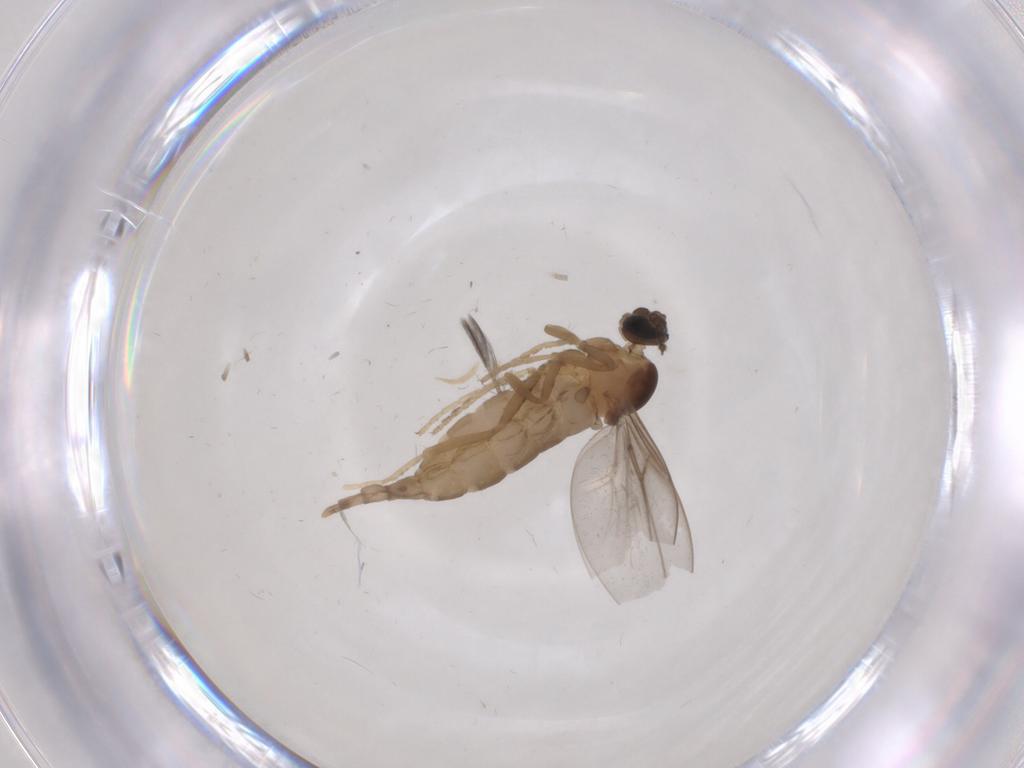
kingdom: Animalia
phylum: Arthropoda
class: Insecta
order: Diptera
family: Cecidomyiidae
